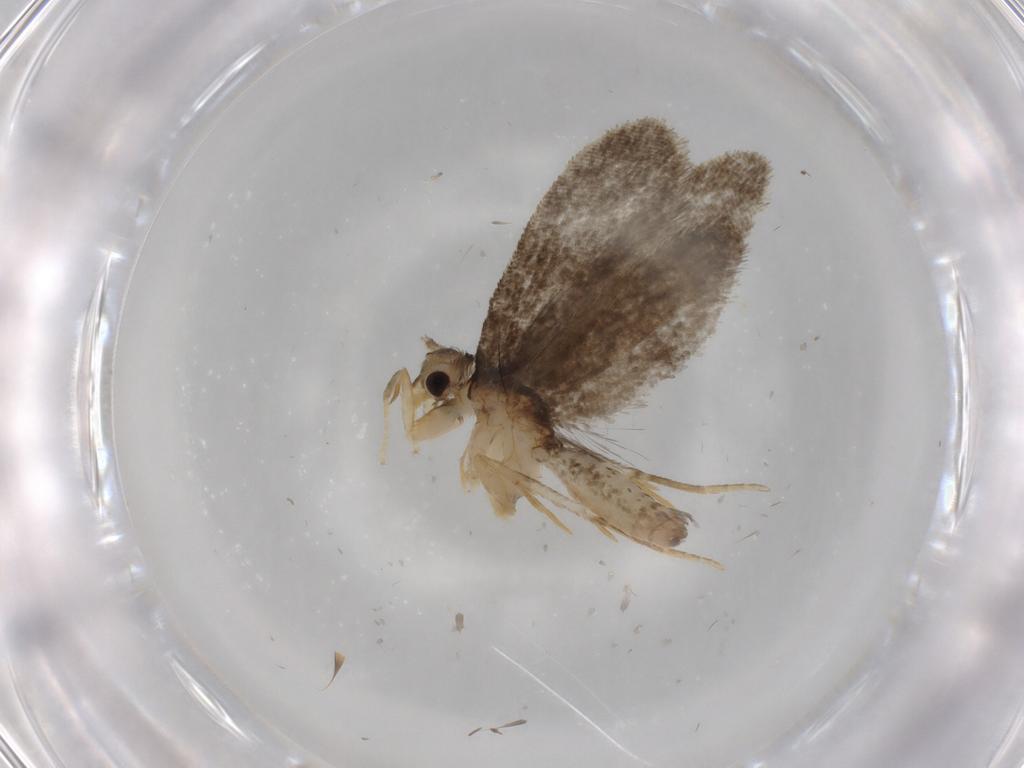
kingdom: Animalia
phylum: Arthropoda
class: Insecta
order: Lepidoptera
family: Psychidae
